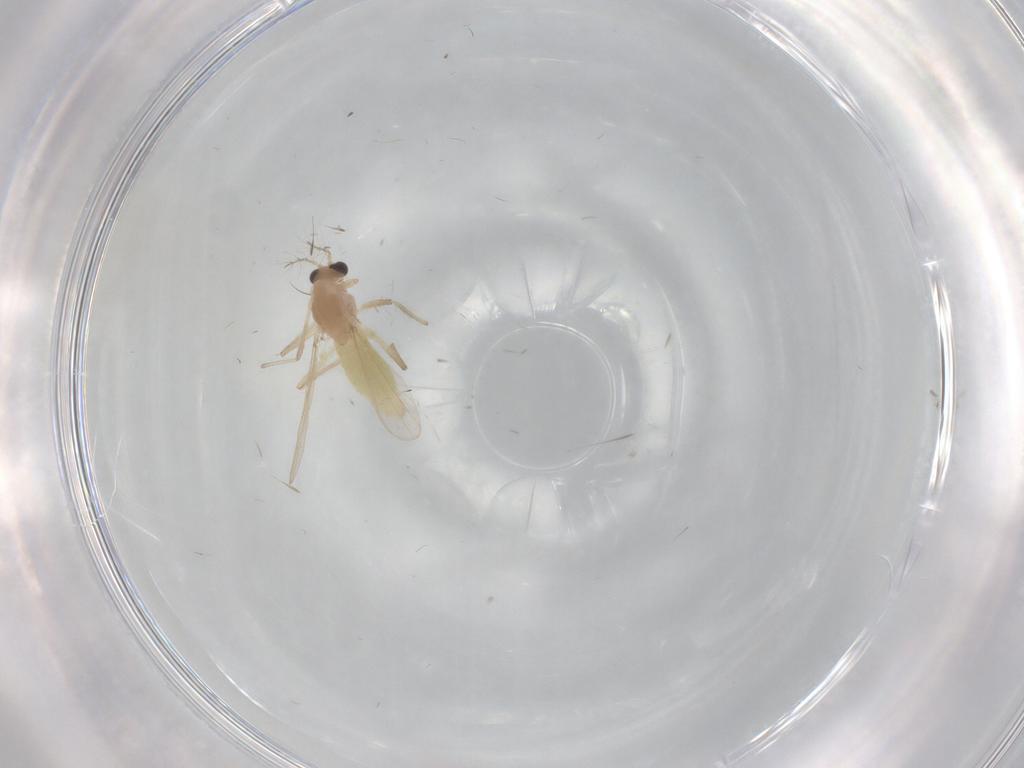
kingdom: Animalia
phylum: Arthropoda
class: Insecta
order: Diptera
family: Chironomidae
